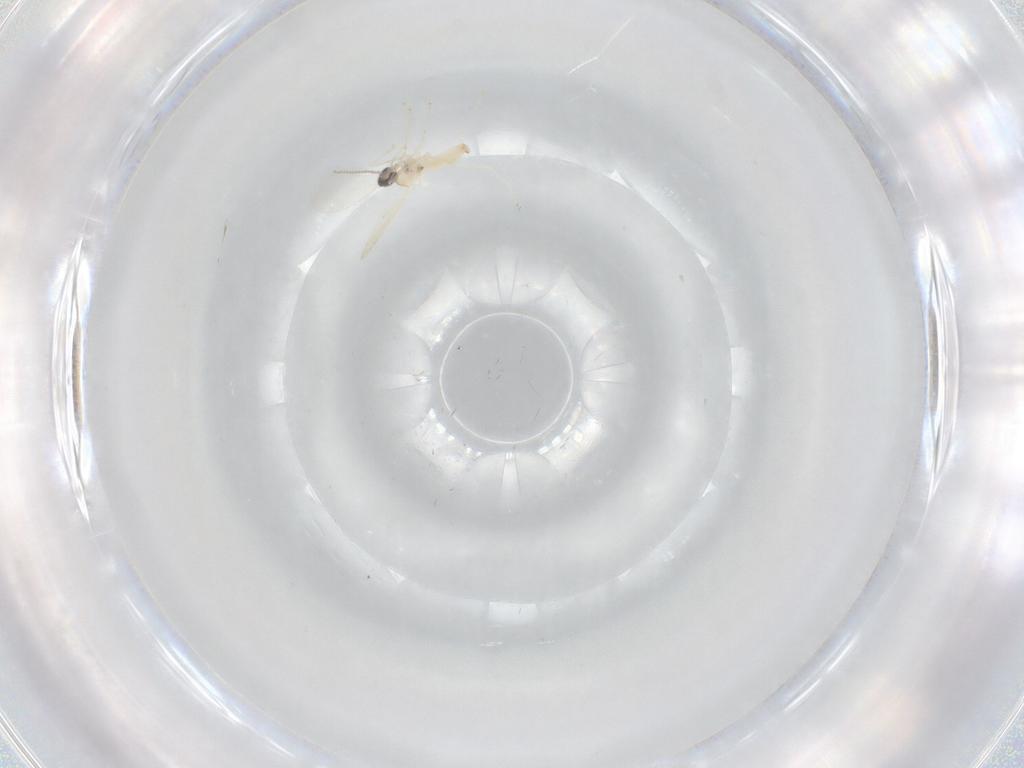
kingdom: Animalia
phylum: Arthropoda
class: Insecta
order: Diptera
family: Cecidomyiidae
